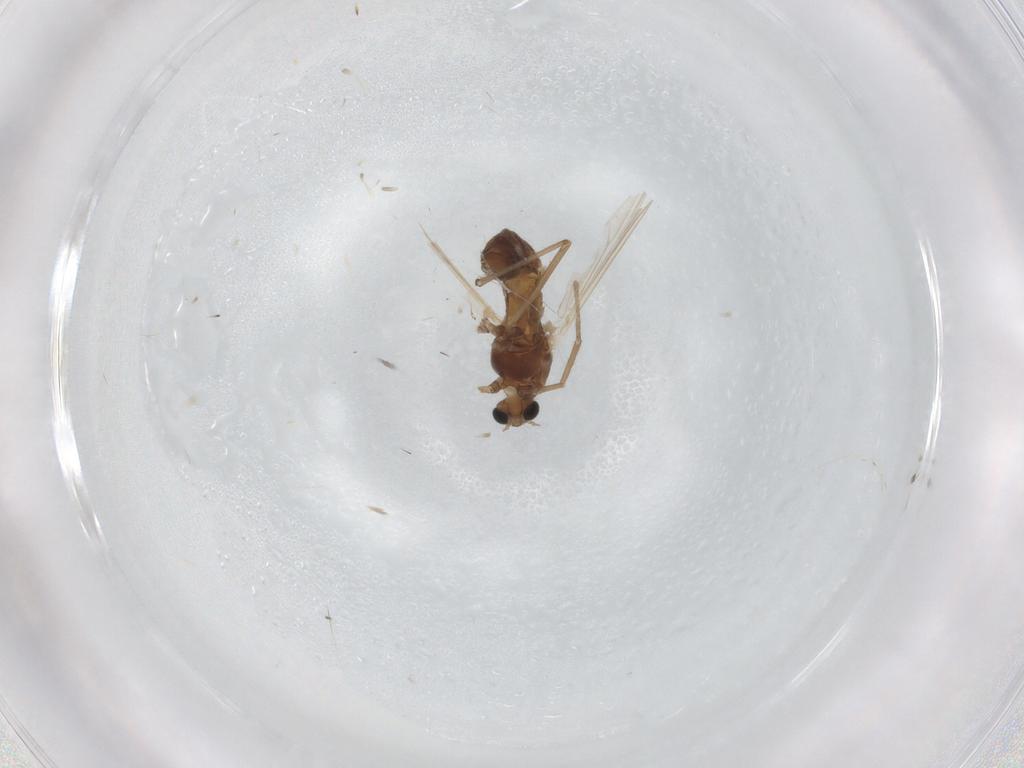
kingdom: Animalia
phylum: Arthropoda
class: Insecta
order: Diptera
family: Chironomidae
